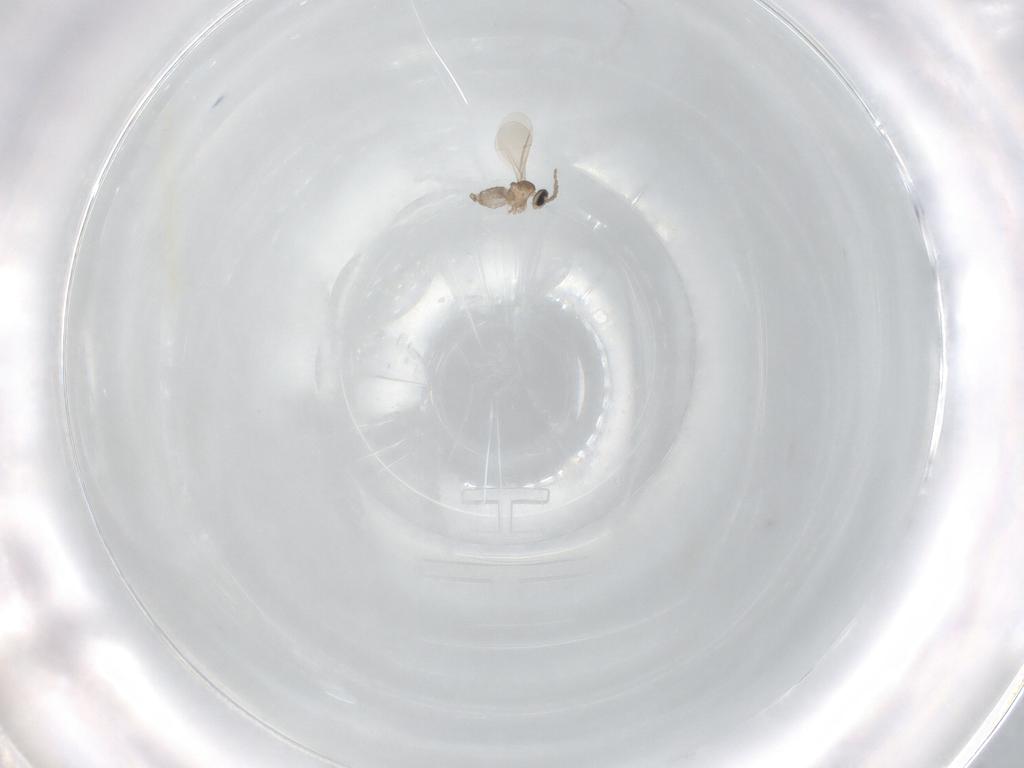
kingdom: Animalia
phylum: Arthropoda
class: Insecta
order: Diptera
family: Cecidomyiidae
